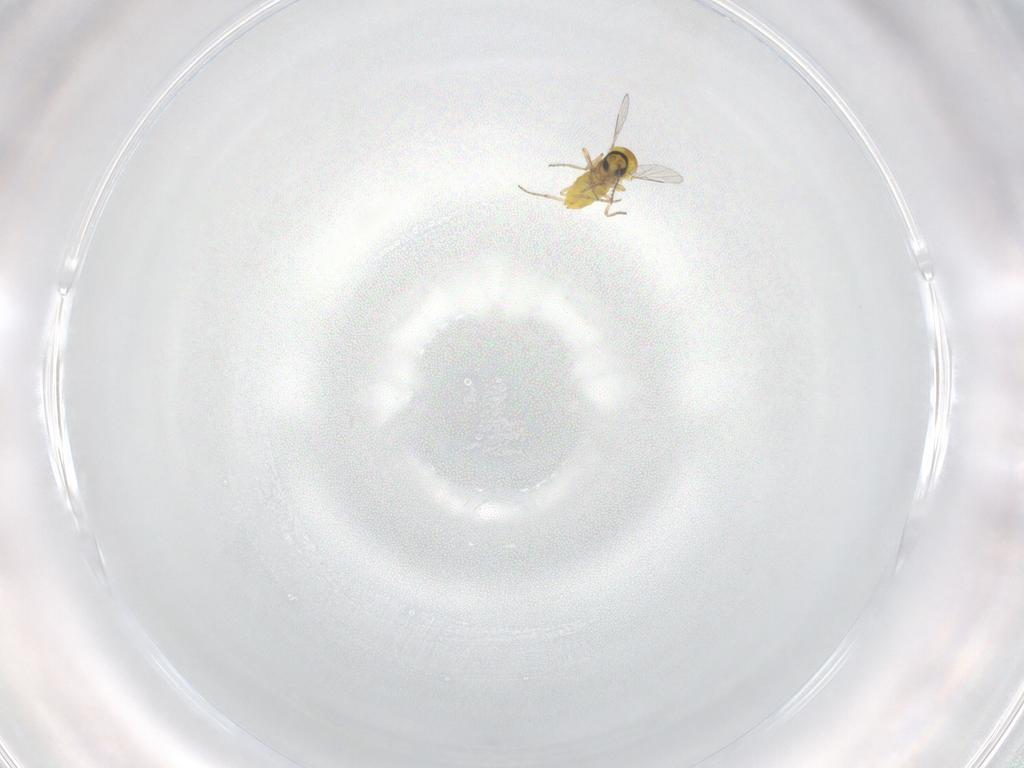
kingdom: Animalia
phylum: Arthropoda
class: Insecta
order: Diptera
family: Ceratopogonidae
